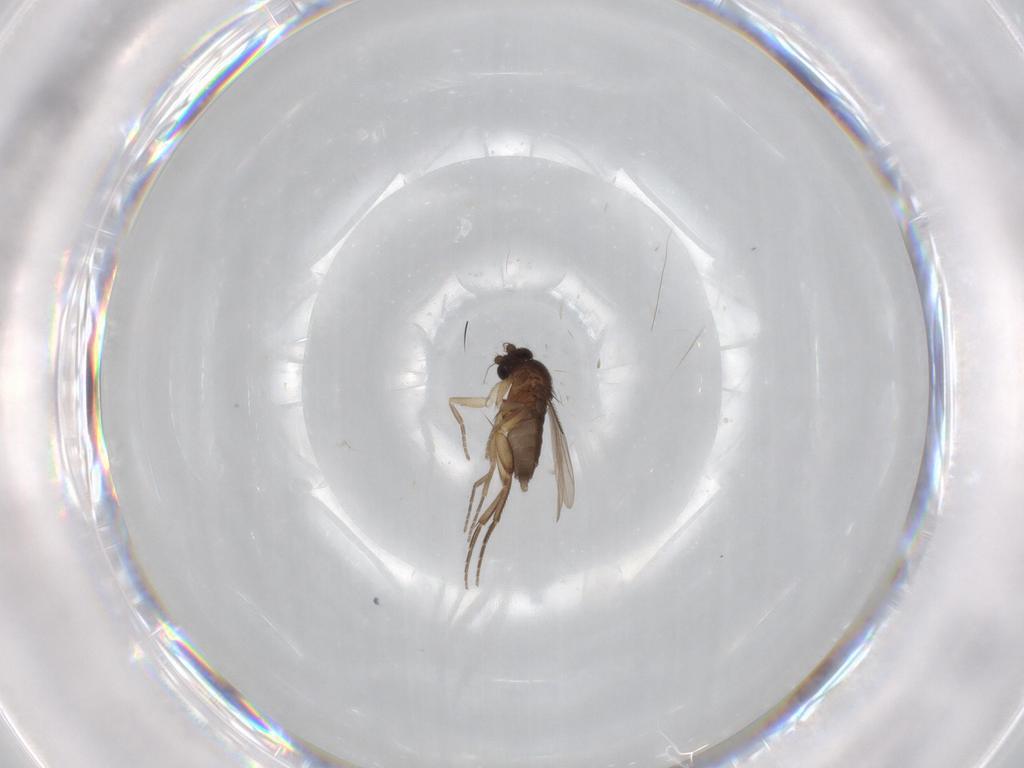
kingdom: Animalia
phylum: Arthropoda
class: Insecta
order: Diptera
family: Phoridae
